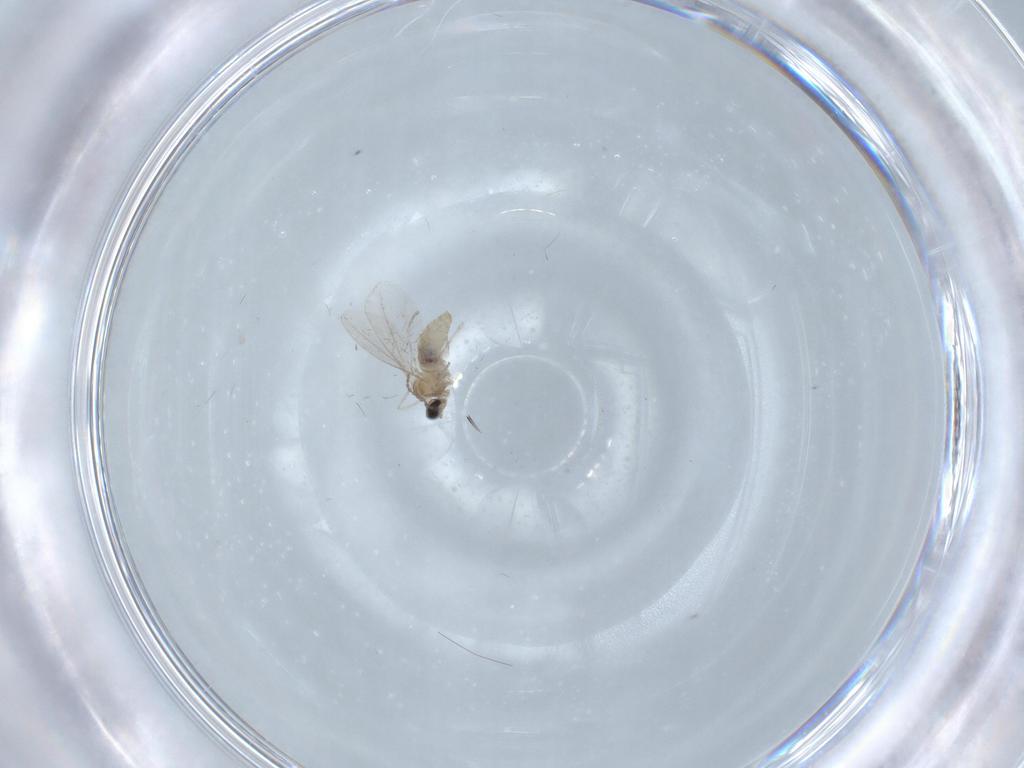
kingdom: Animalia
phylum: Arthropoda
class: Insecta
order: Diptera
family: Cecidomyiidae
